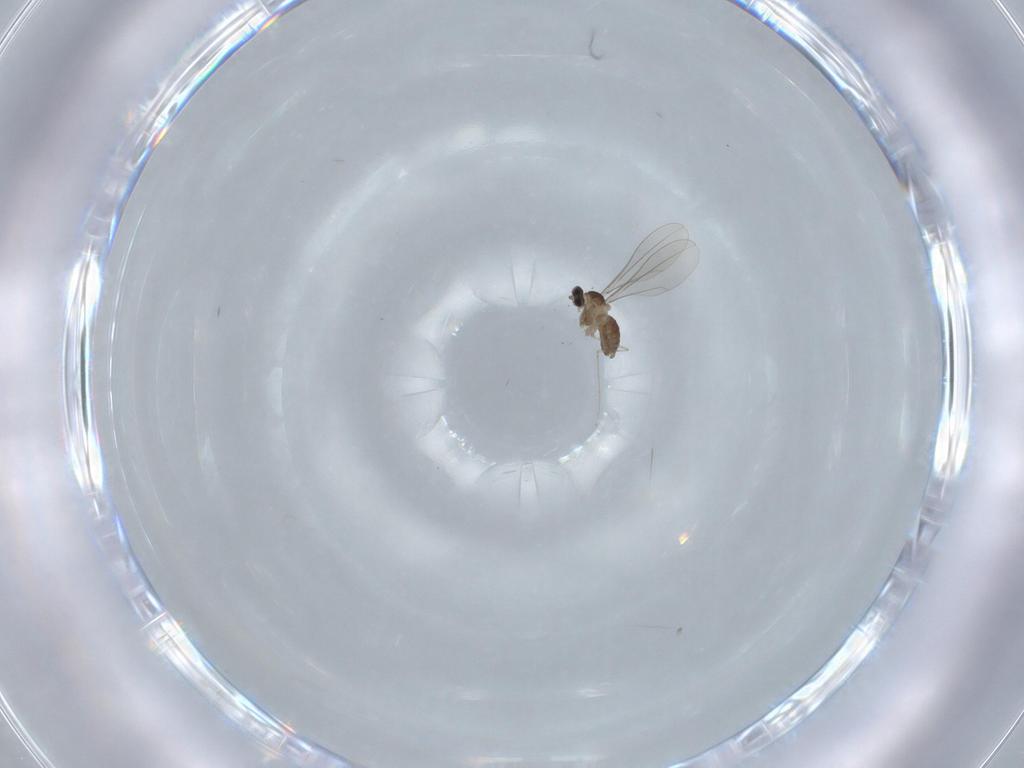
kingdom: Animalia
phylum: Arthropoda
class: Insecta
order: Diptera
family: Cecidomyiidae
